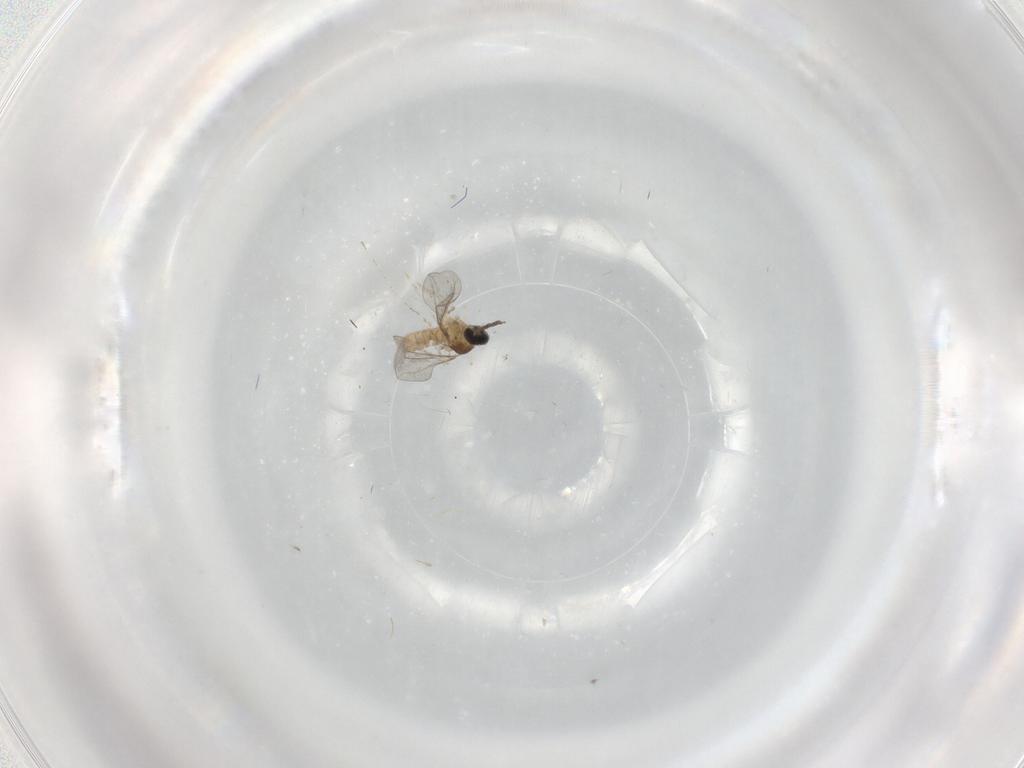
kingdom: Animalia
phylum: Arthropoda
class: Insecta
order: Diptera
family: Cecidomyiidae
